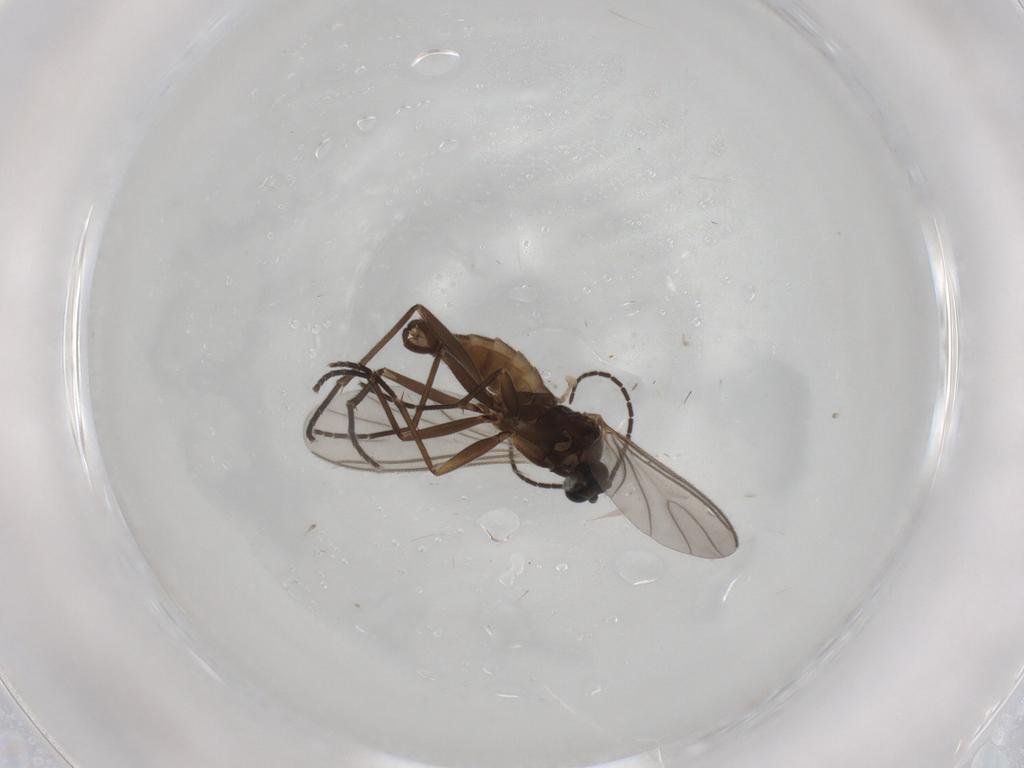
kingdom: Animalia
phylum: Arthropoda
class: Insecta
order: Diptera
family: Sciaridae
